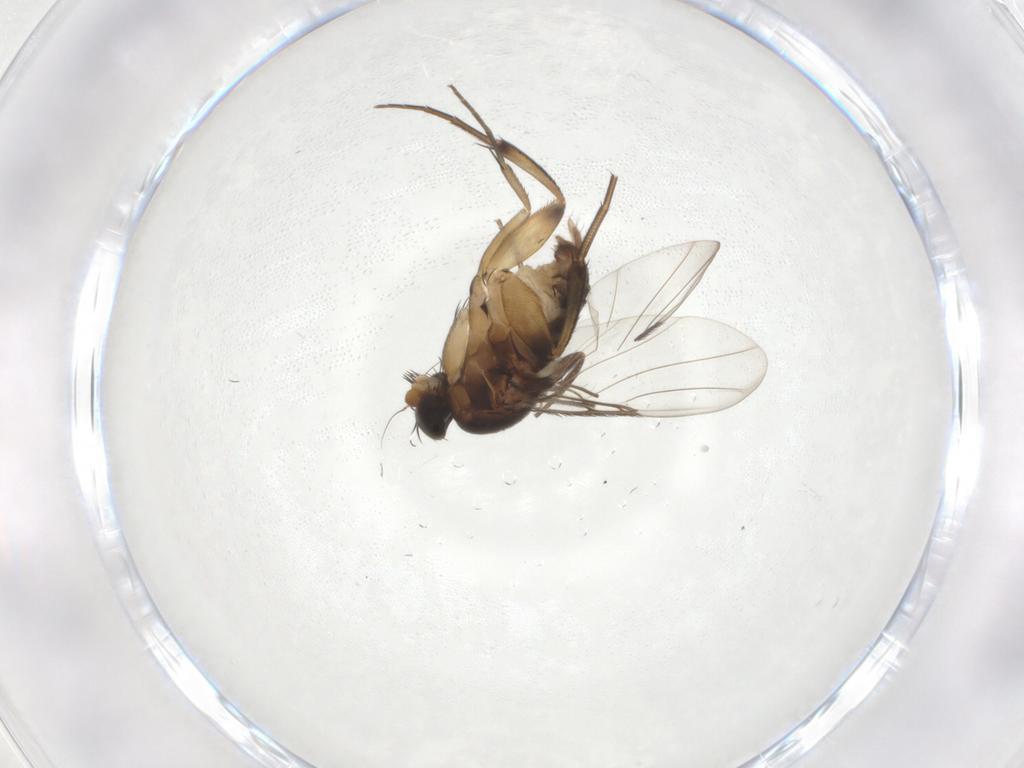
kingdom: Animalia
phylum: Arthropoda
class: Insecta
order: Diptera
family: Phoridae
